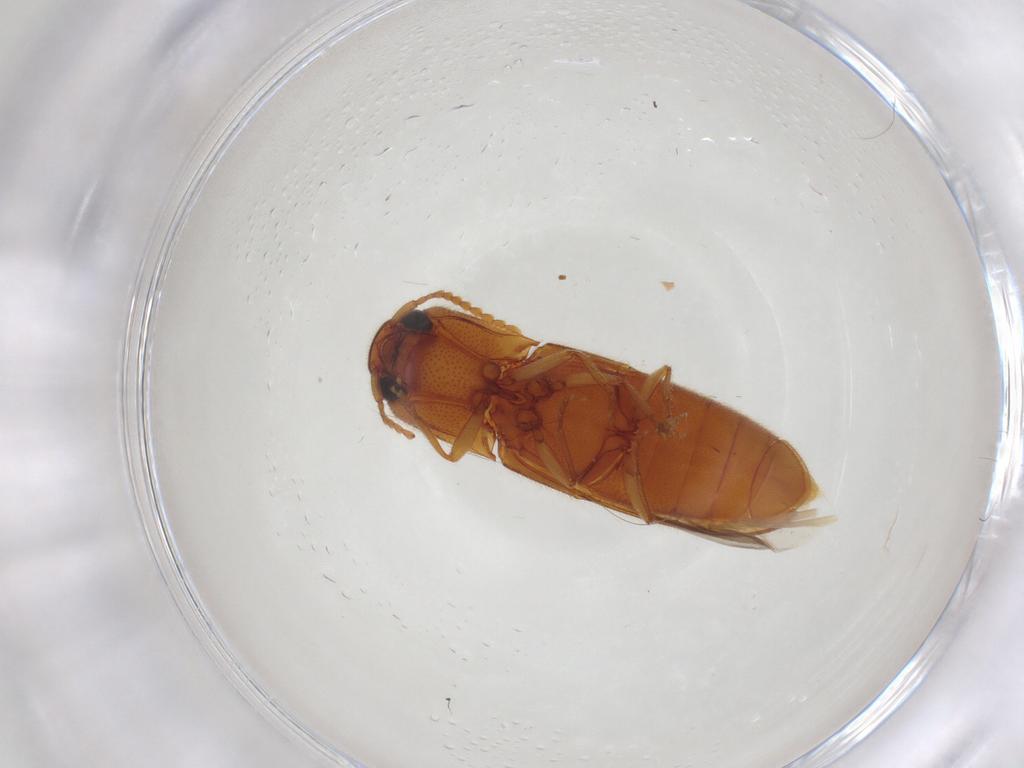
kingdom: Animalia
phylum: Arthropoda
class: Insecta
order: Coleoptera
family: Elateridae
